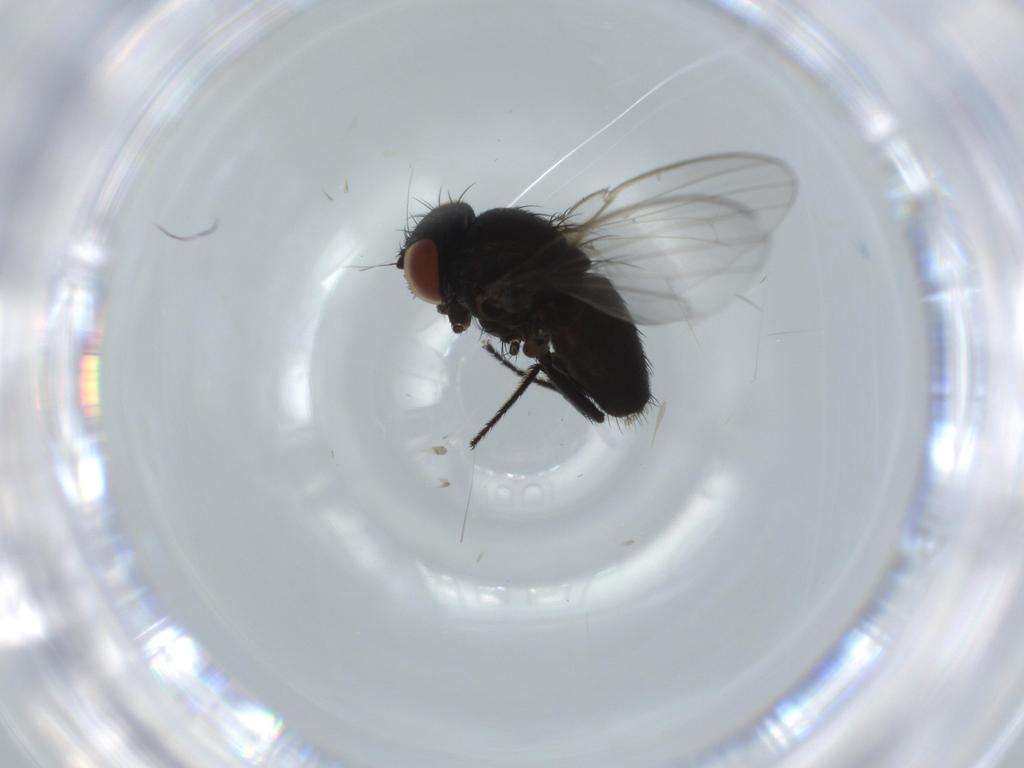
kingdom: Animalia
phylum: Arthropoda
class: Insecta
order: Diptera
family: Milichiidae
